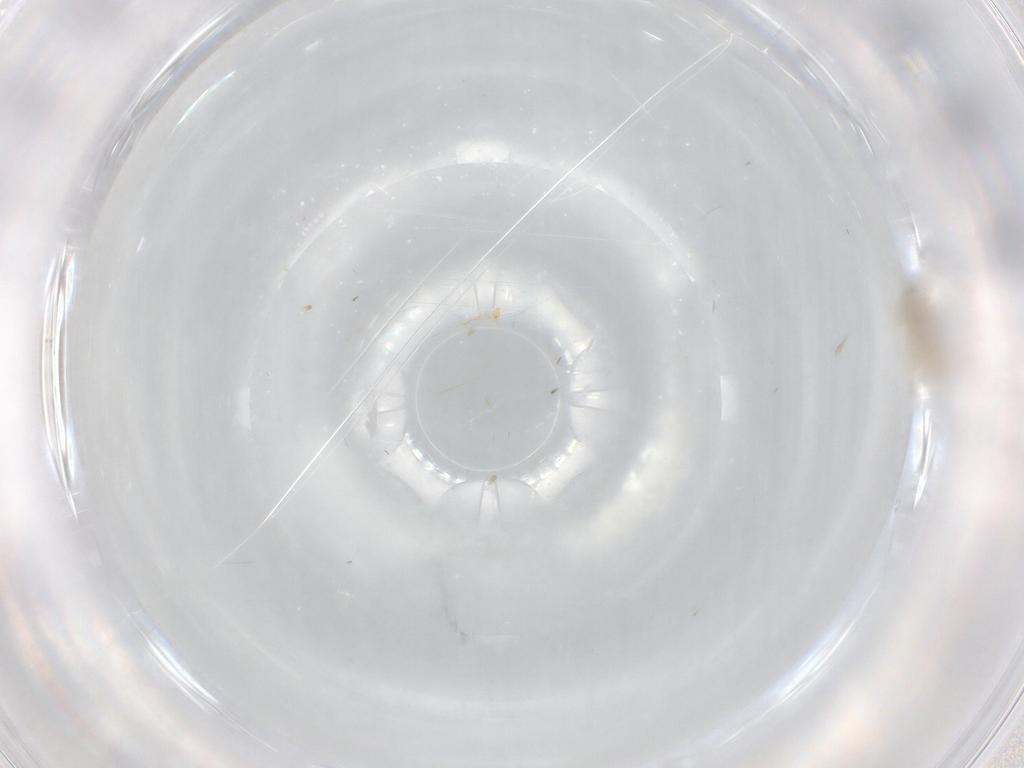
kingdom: Animalia
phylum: Arthropoda
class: Insecta
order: Diptera
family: Cecidomyiidae
